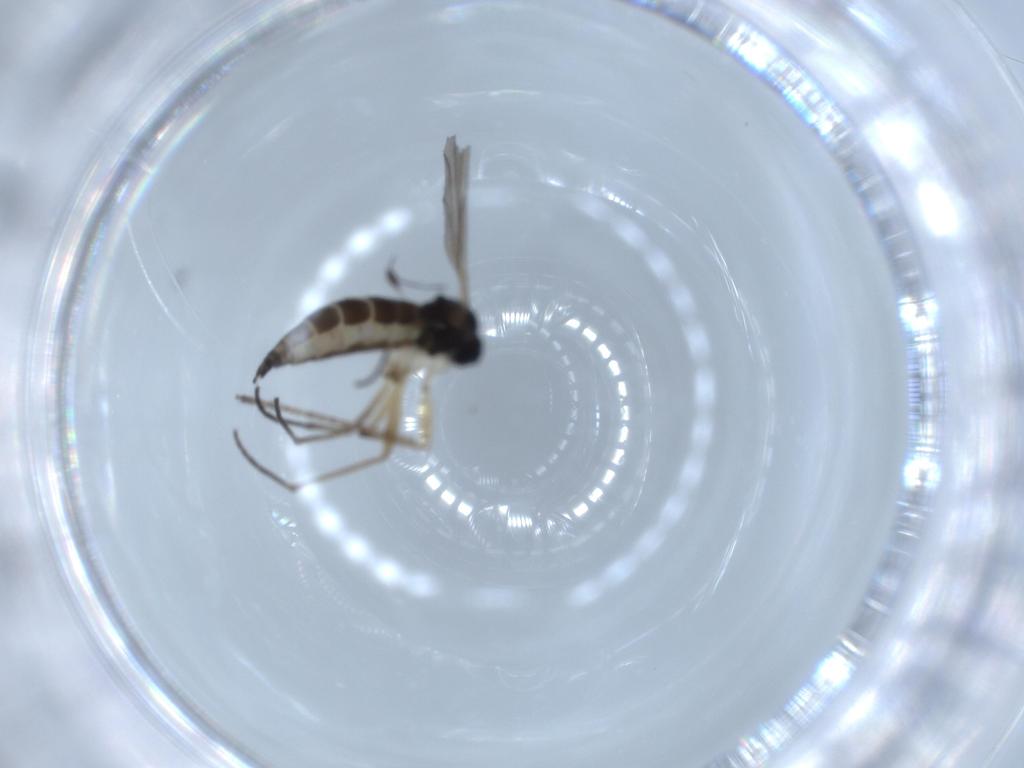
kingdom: Animalia
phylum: Arthropoda
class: Insecta
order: Diptera
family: Sciaridae
